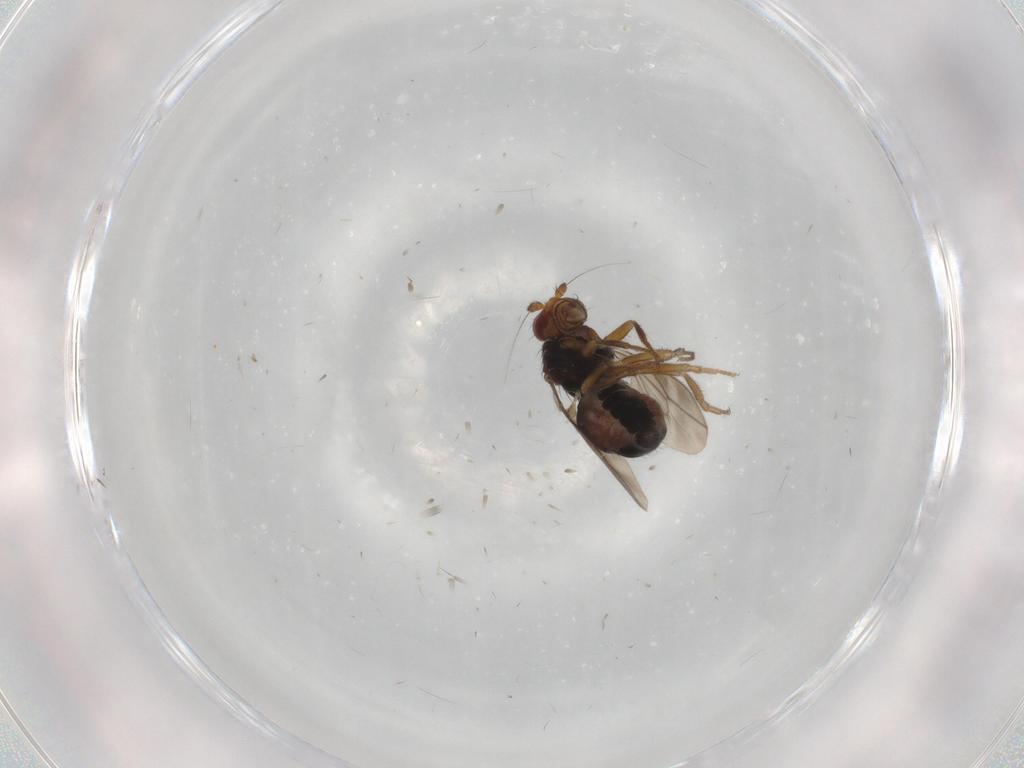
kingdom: Animalia
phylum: Arthropoda
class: Insecta
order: Diptera
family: Sphaeroceridae
